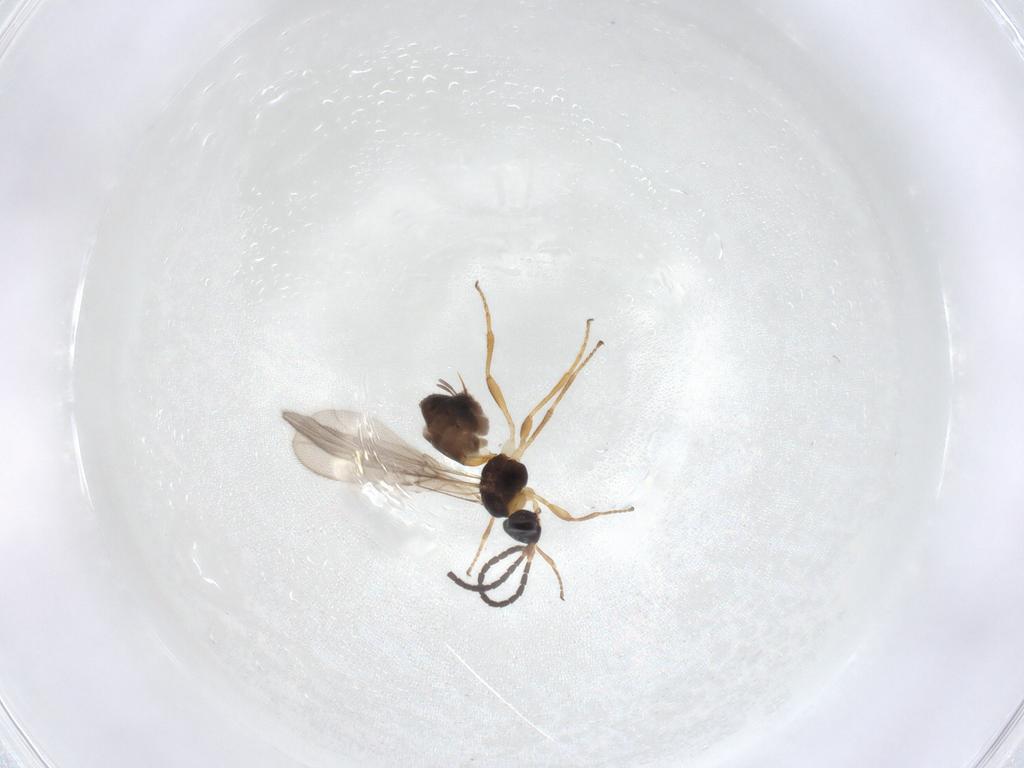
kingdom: Animalia
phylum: Arthropoda
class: Insecta
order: Hymenoptera
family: Braconidae
